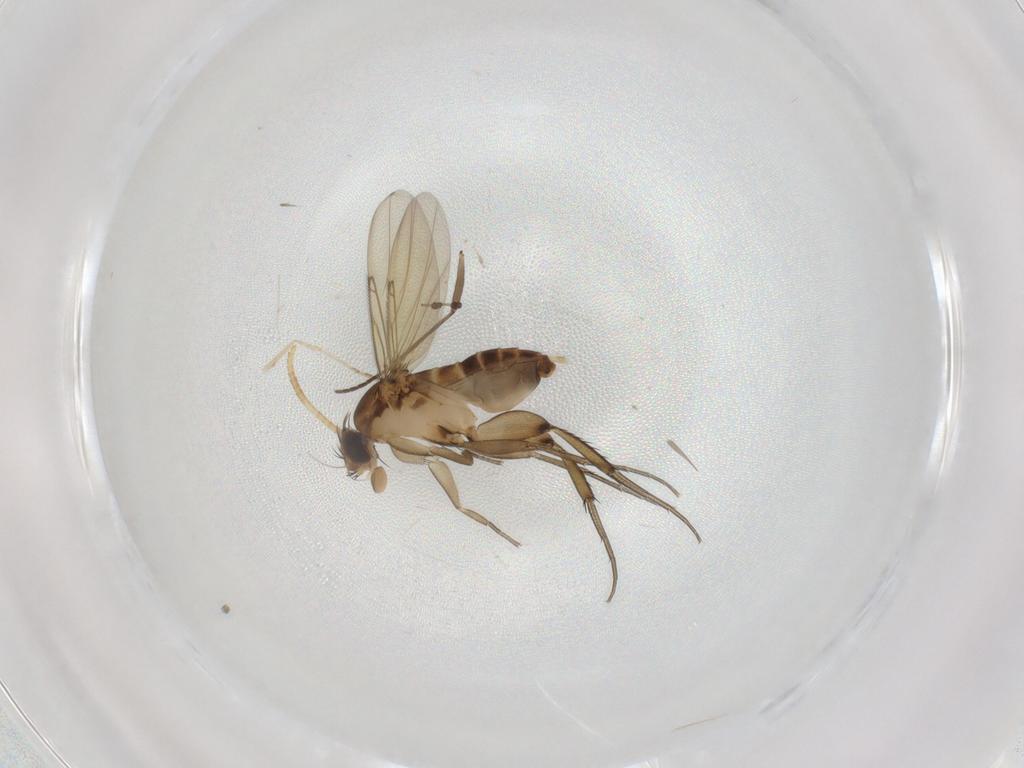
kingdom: Animalia
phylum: Arthropoda
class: Insecta
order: Diptera
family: Phoridae
